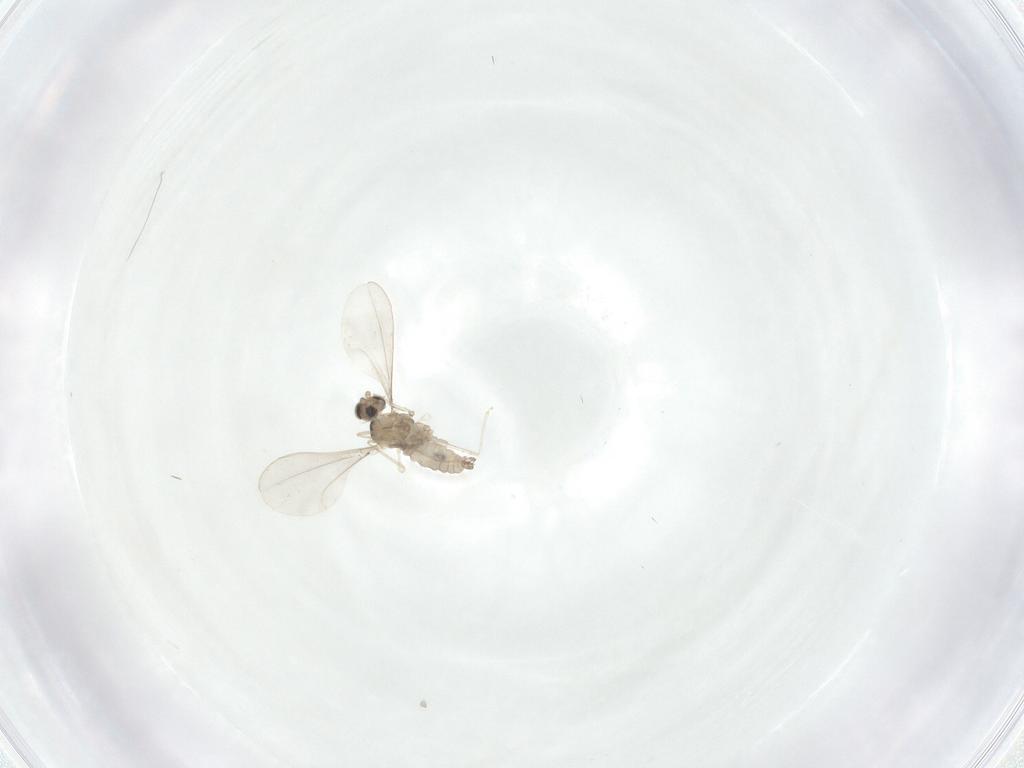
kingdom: Animalia
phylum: Arthropoda
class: Insecta
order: Diptera
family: Cecidomyiidae
